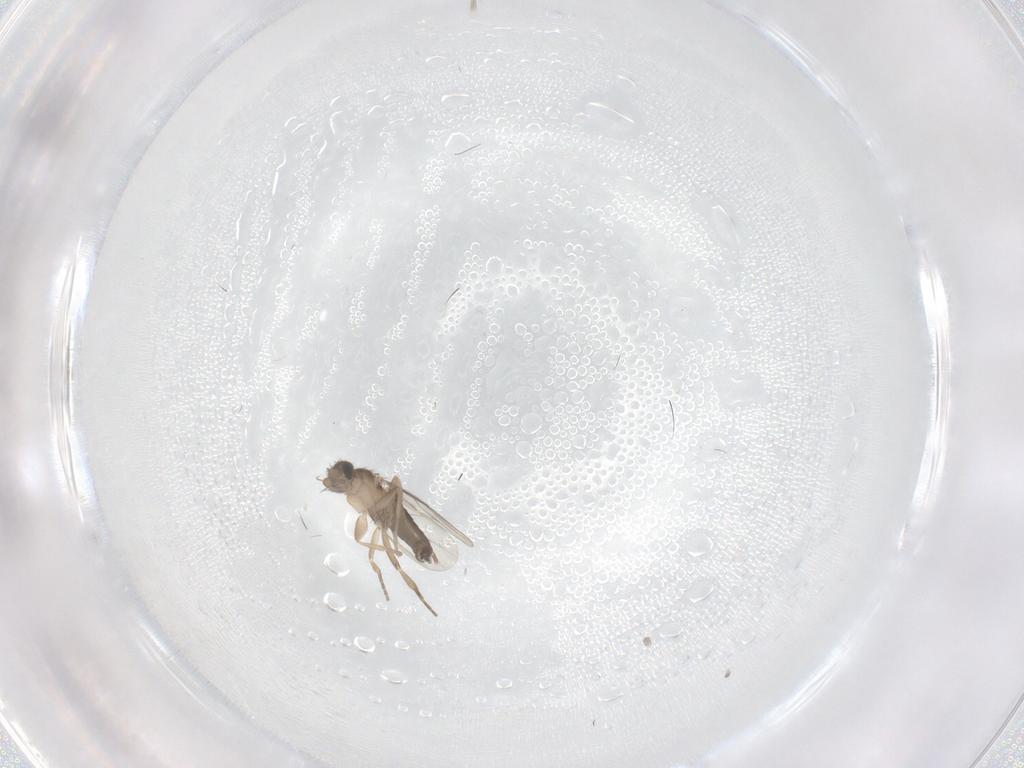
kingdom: Animalia
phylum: Arthropoda
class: Insecta
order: Diptera
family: Phoridae
